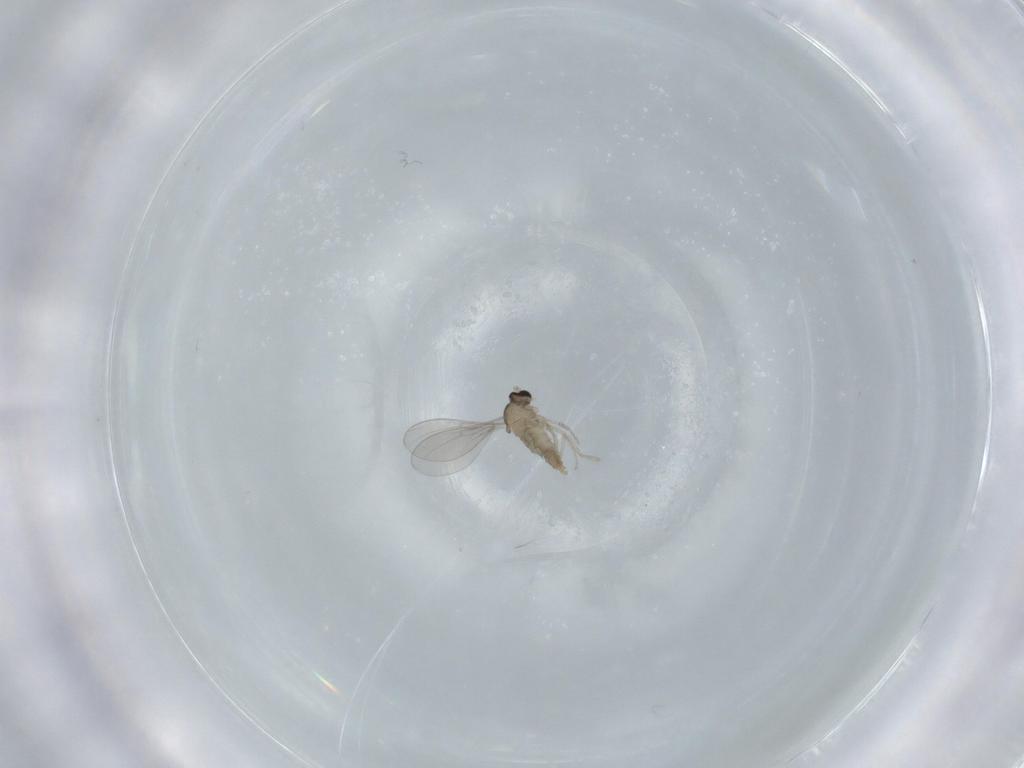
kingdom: Animalia
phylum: Arthropoda
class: Insecta
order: Diptera
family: Cecidomyiidae
